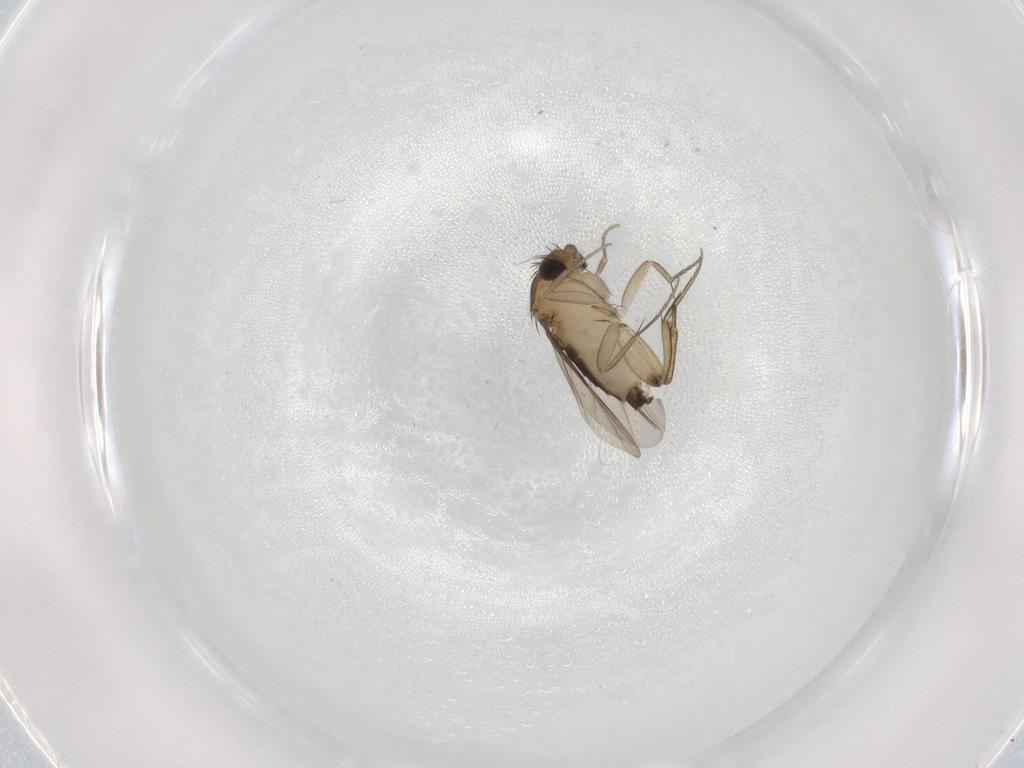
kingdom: Animalia
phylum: Arthropoda
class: Insecta
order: Diptera
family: Phoridae
